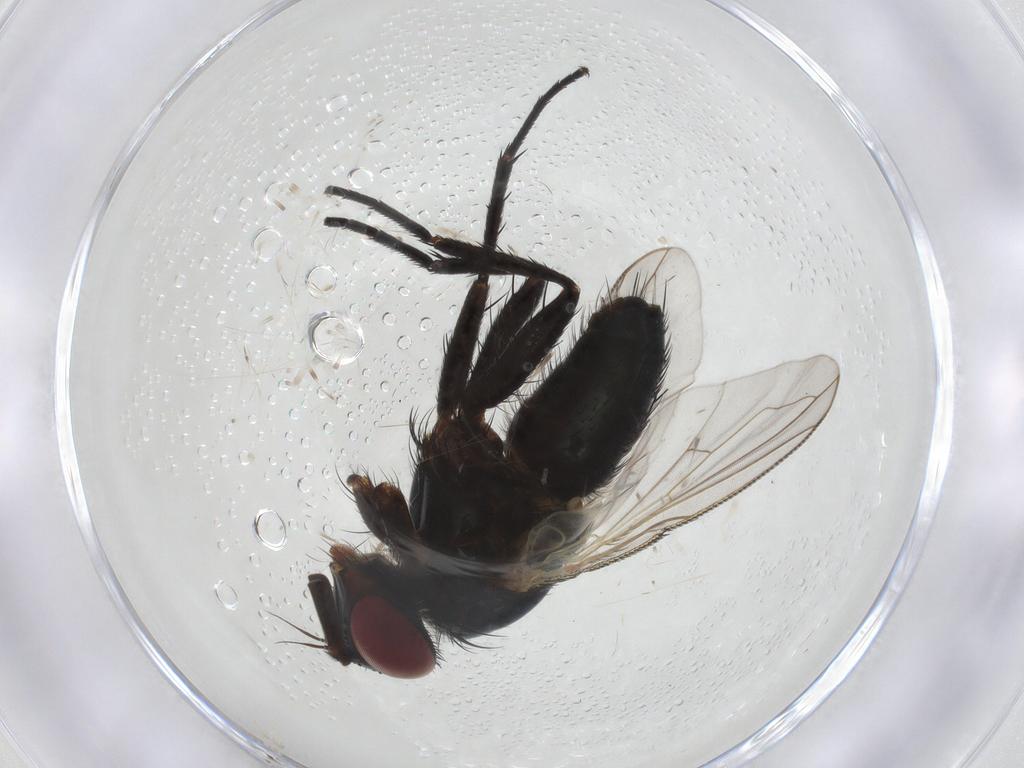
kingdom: Animalia
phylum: Arthropoda
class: Insecta
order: Diptera
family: Tachinidae
